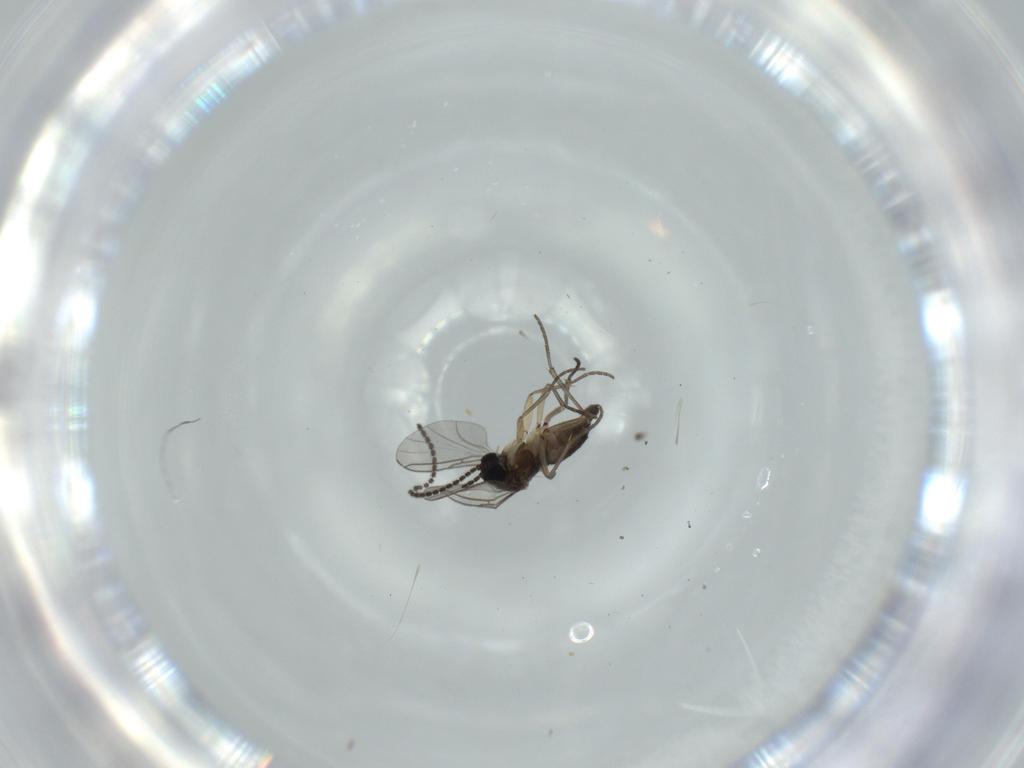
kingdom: Animalia
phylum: Arthropoda
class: Insecta
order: Diptera
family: Sciaridae
